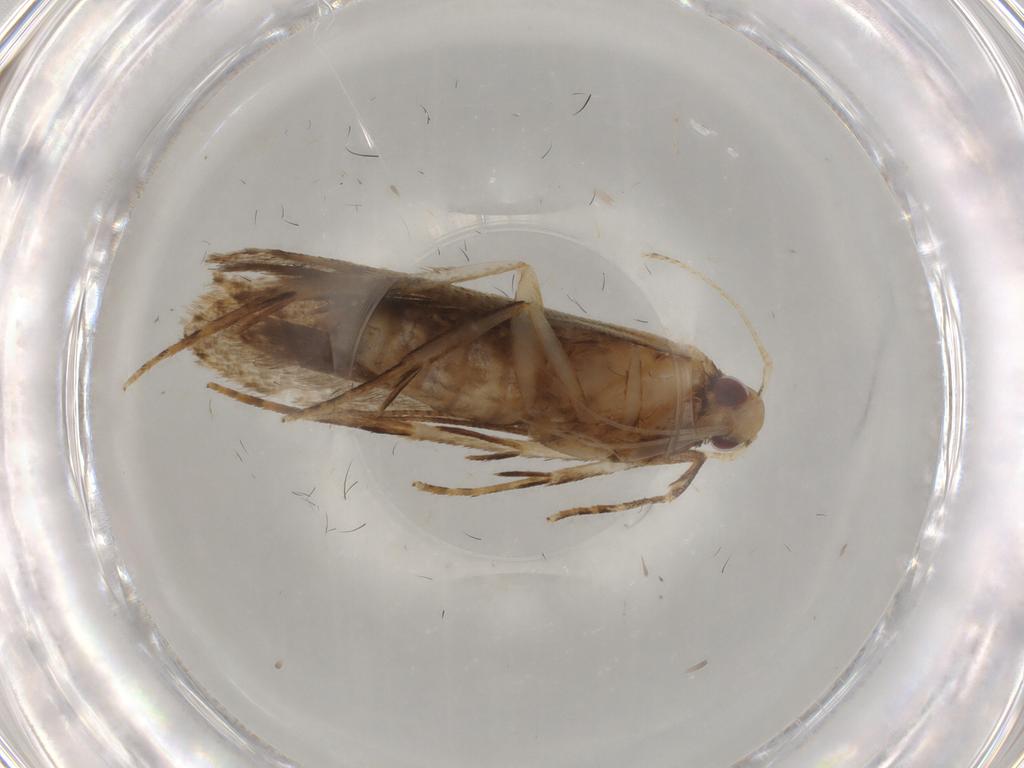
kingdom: Animalia
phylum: Arthropoda
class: Insecta
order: Lepidoptera
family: Gelechiidae
